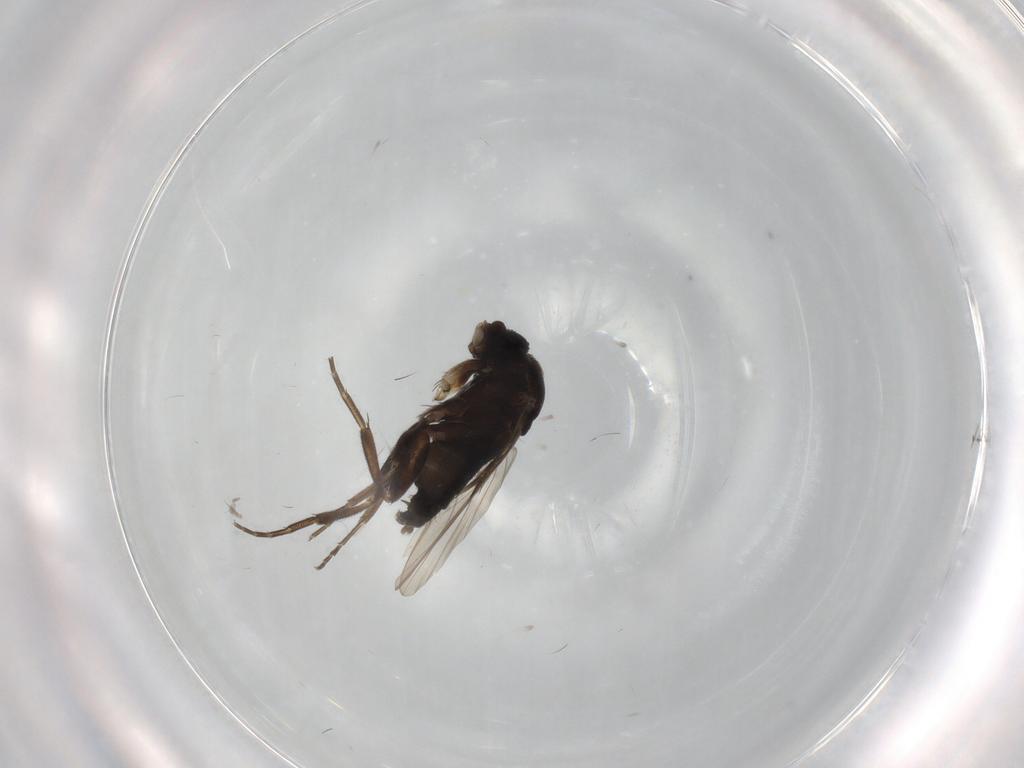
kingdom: Animalia
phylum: Arthropoda
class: Insecta
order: Diptera
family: Phoridae
